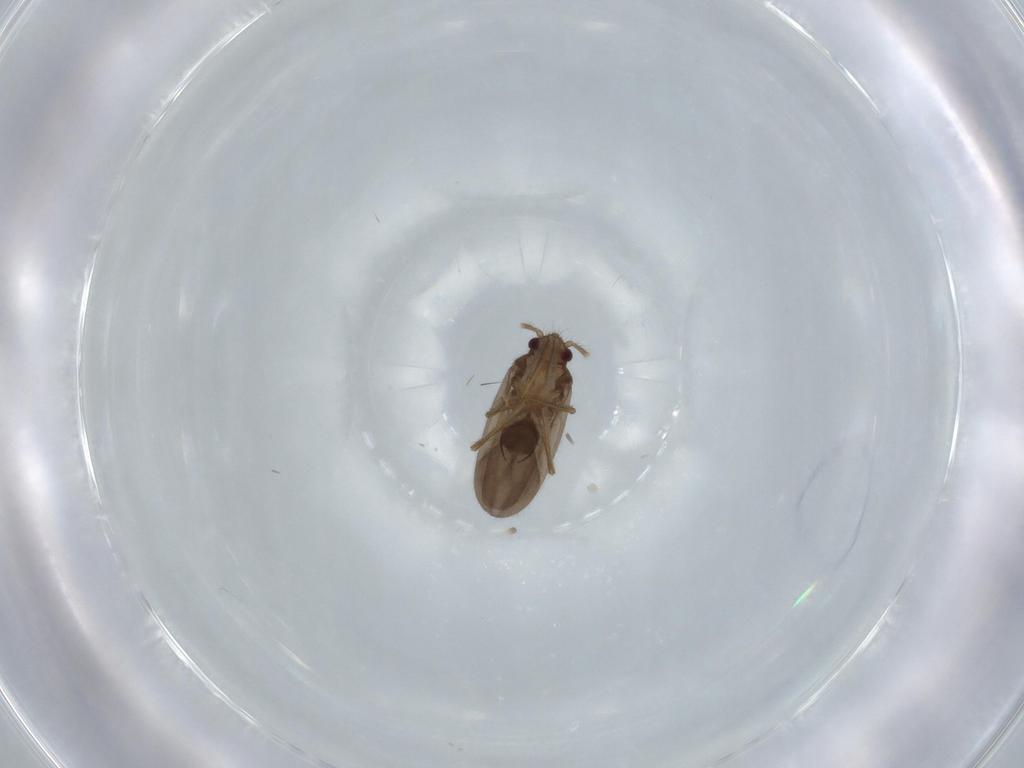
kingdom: Animalia
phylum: Arthropoda
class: Insecta
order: Hemiptera
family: Ceratocombidae
